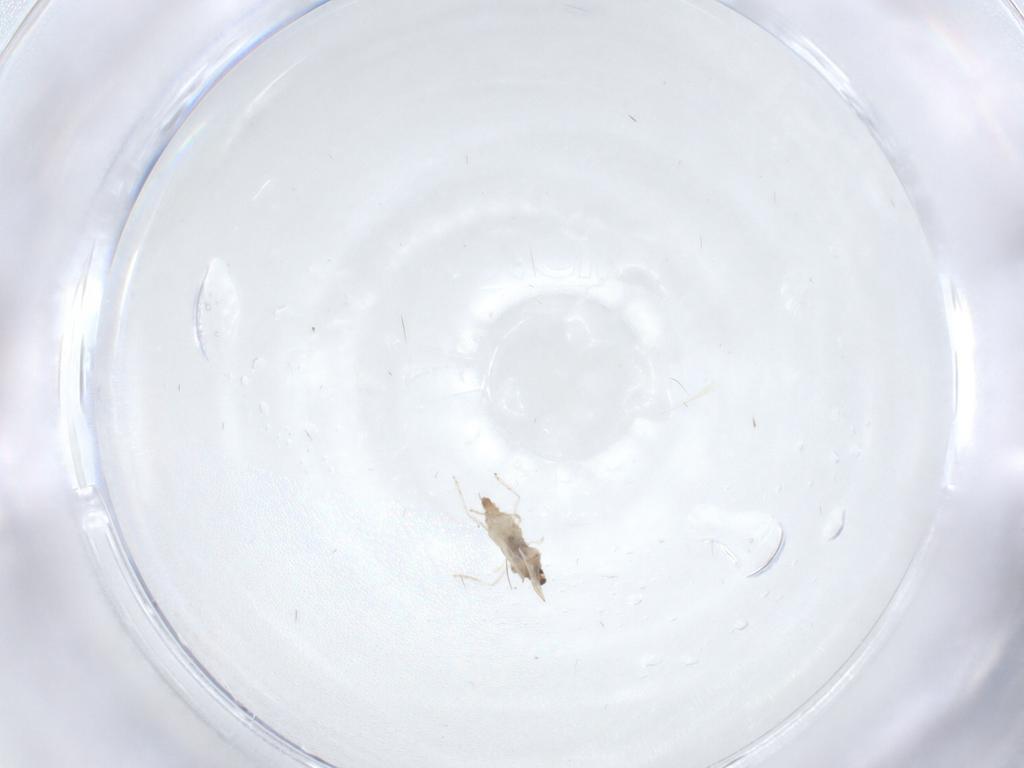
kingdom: Animalia
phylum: Arthropoda
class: Insecta
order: Diptera
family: Cecidomyiidae
